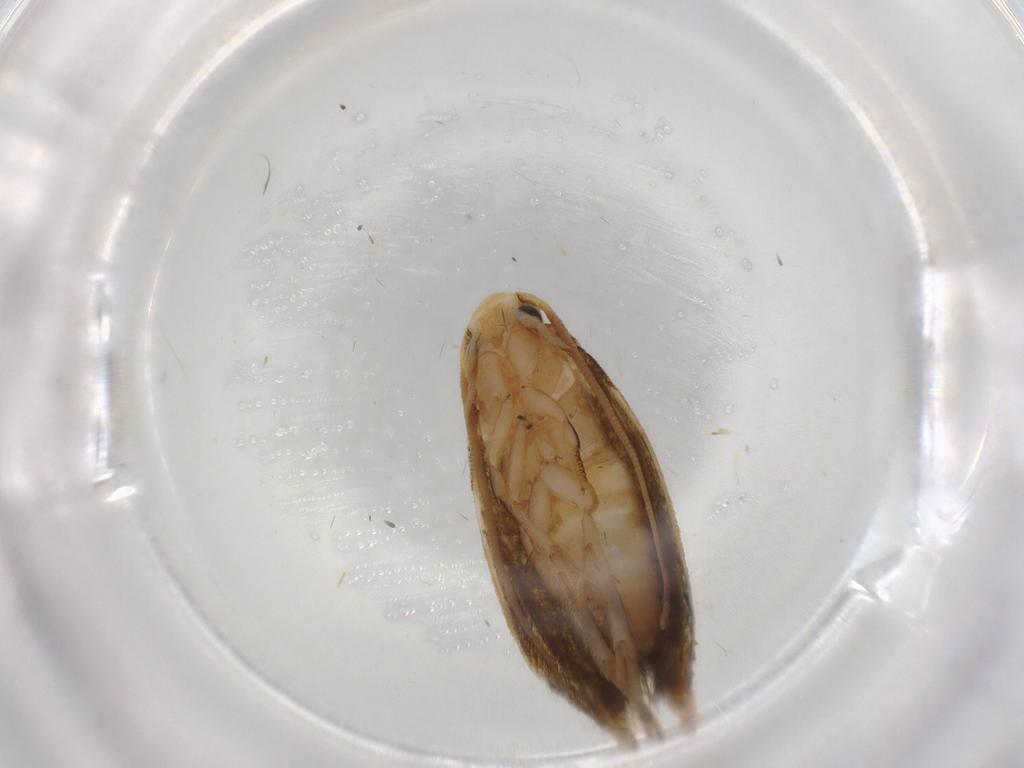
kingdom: Animalia
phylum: Arthropoda
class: Insecta
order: Lepidoptera
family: Tineidae
